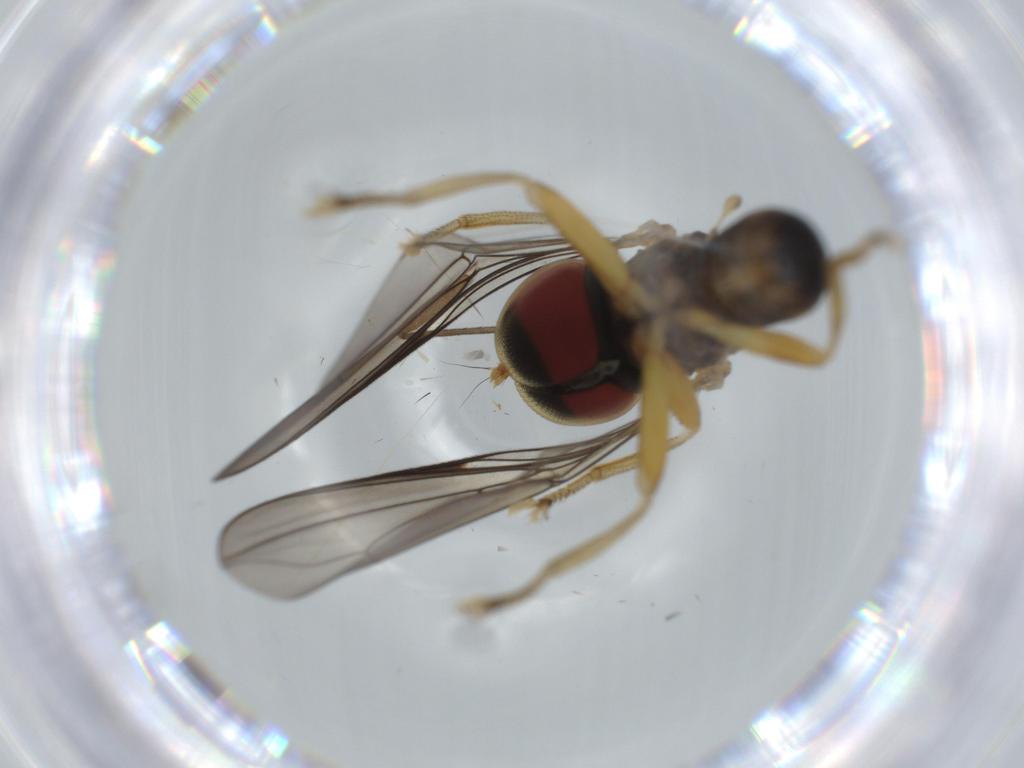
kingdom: Animalia
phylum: Arthropoda
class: Insecta
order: Diptera
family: Pipunculidae
